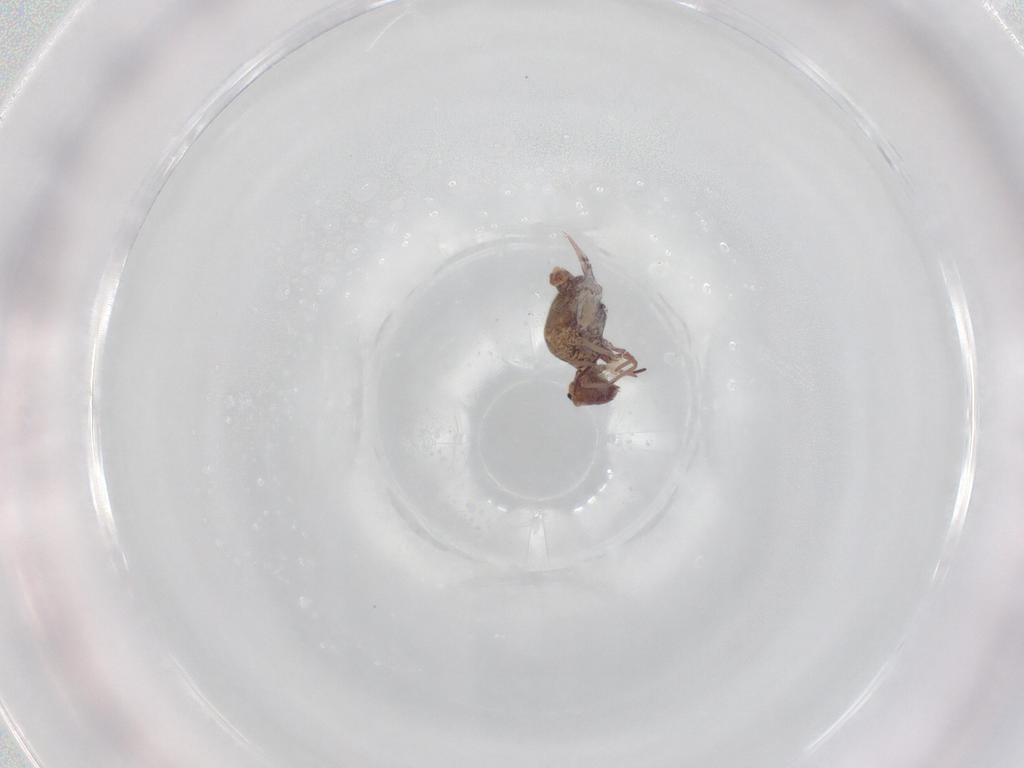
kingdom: Animalia
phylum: Arthropoda
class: Collembola
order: Symphypleona
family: Bourletiellidae
